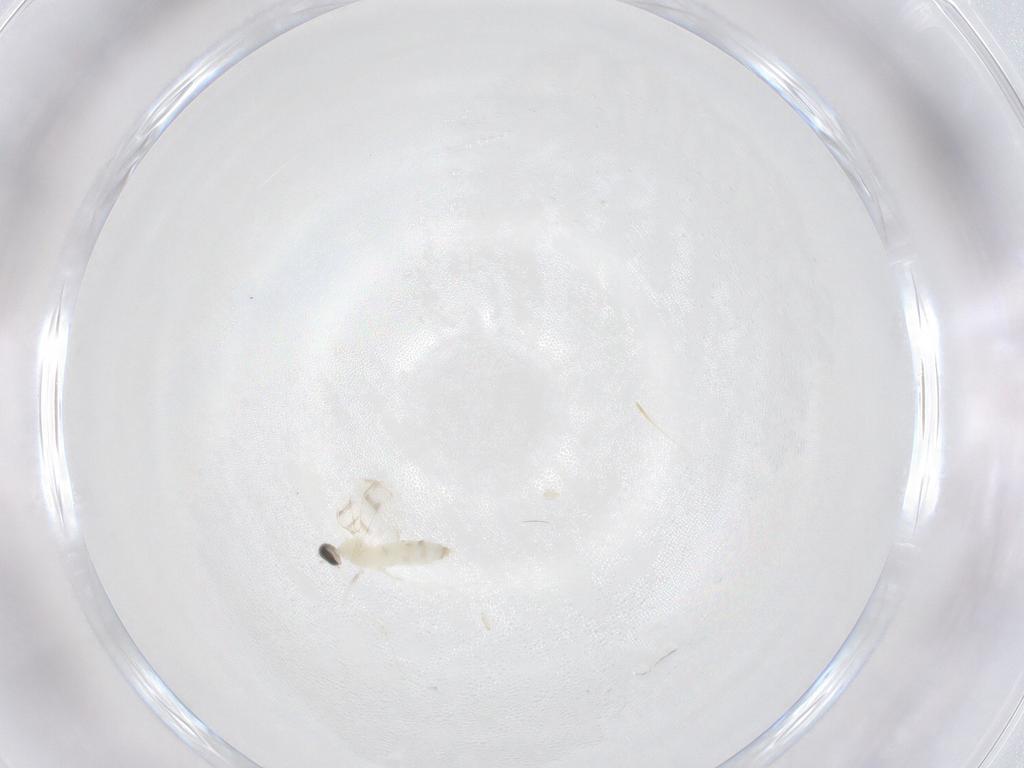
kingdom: Animalia
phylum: Arthropoda
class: Insecta
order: Diptera
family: Cecidomyiidae
